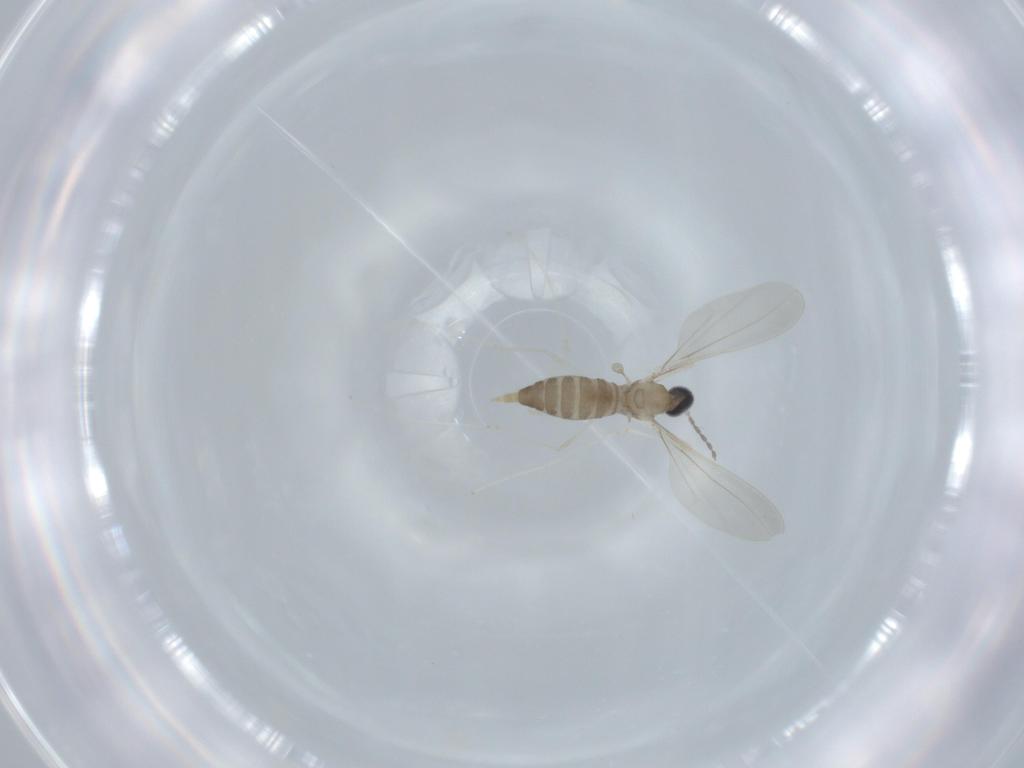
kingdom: Animalia
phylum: Arthropoda
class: Insecta
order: Diptera
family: Cecidomyiidae
